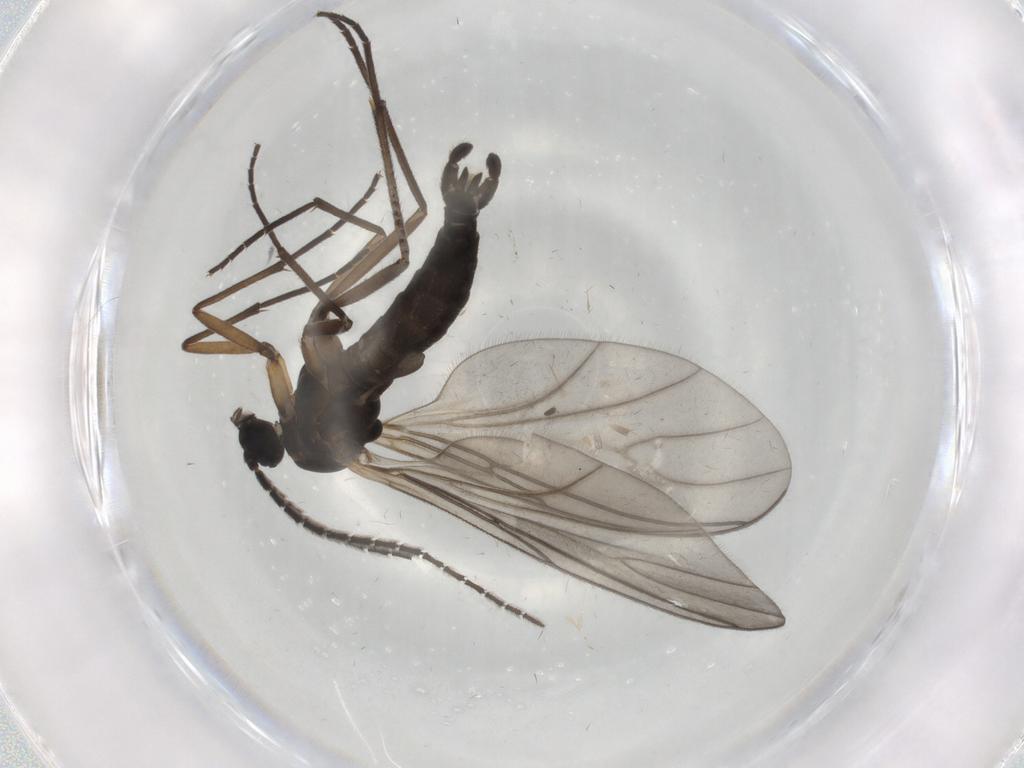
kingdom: Animalia
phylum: Arthropoda
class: Insecta
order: Diptera
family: Sciaridae
